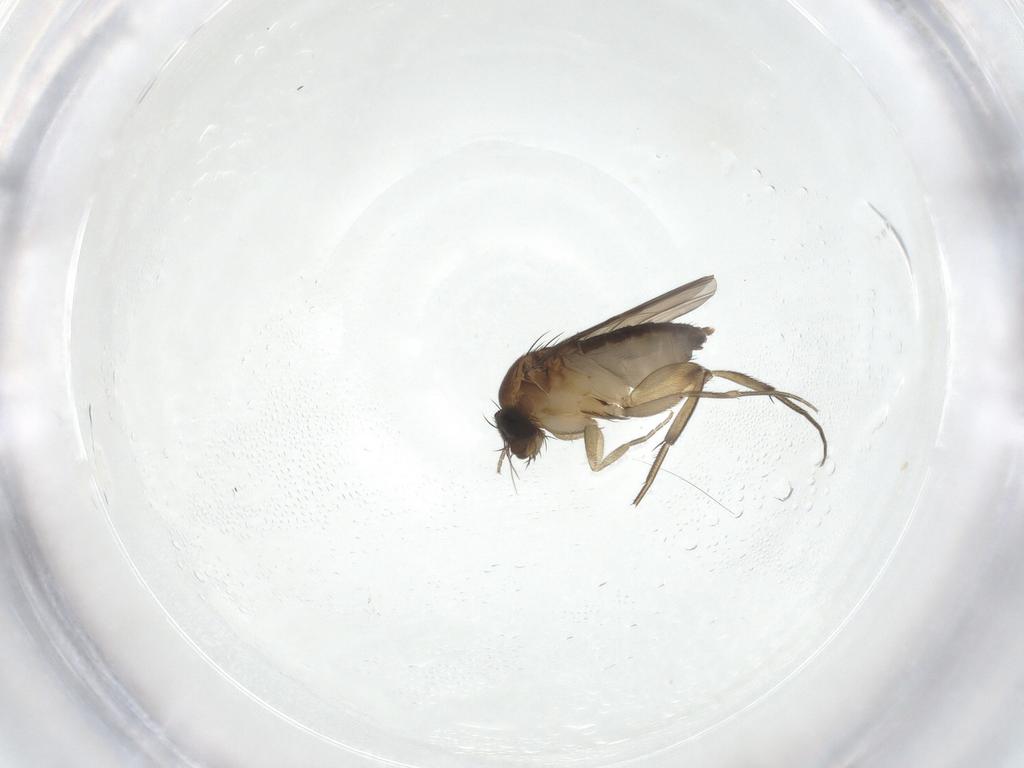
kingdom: Animalia
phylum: Arthropoda
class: Insecta
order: Diptera
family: Phoridae
